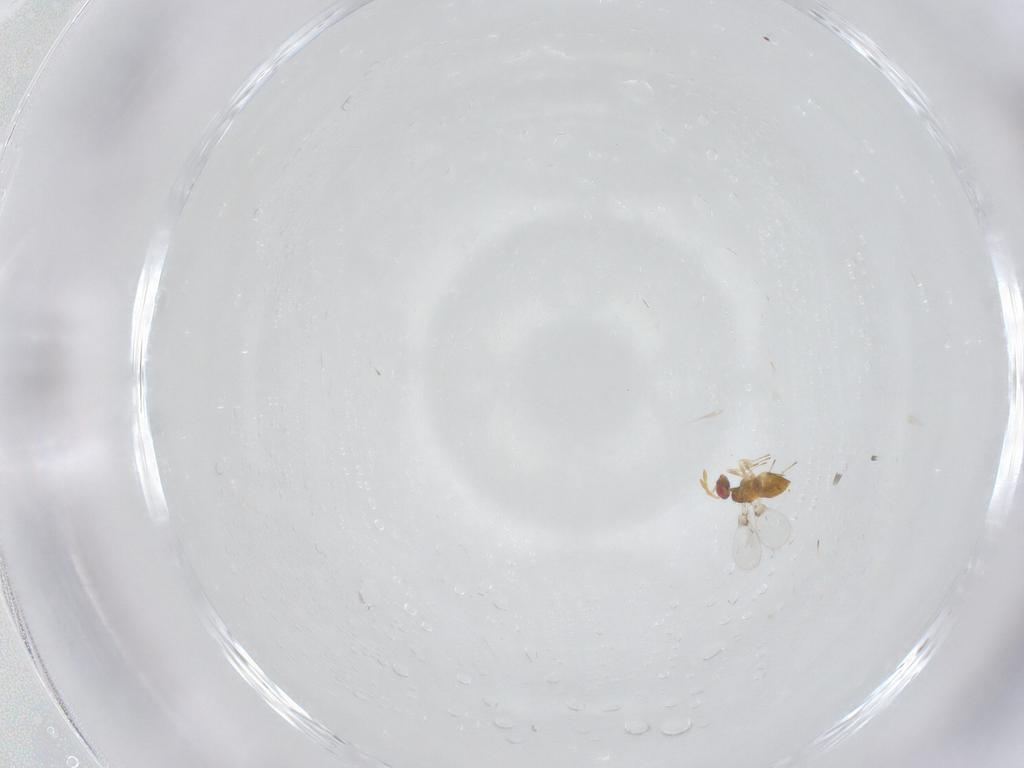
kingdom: Animalia
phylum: Arthropoda
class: Insecta
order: Hymenoptera
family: Trichogrammatidae
